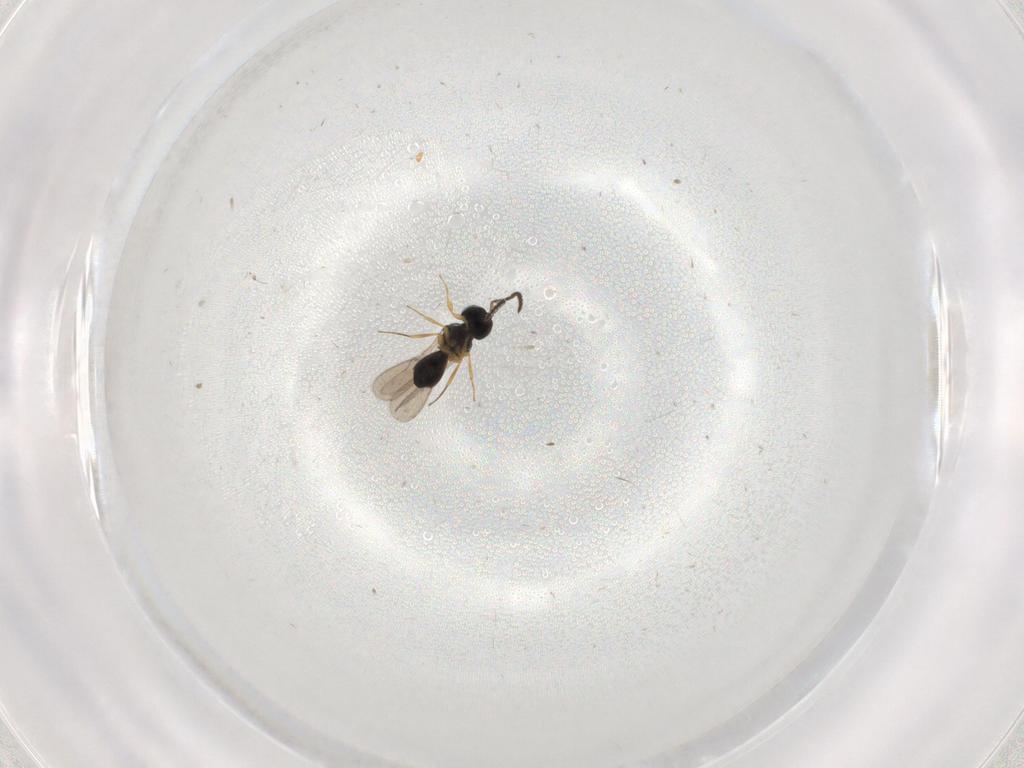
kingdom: Animalia
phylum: Arthropoda
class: Insecta
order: Hymenoptera
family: Scelionidae
